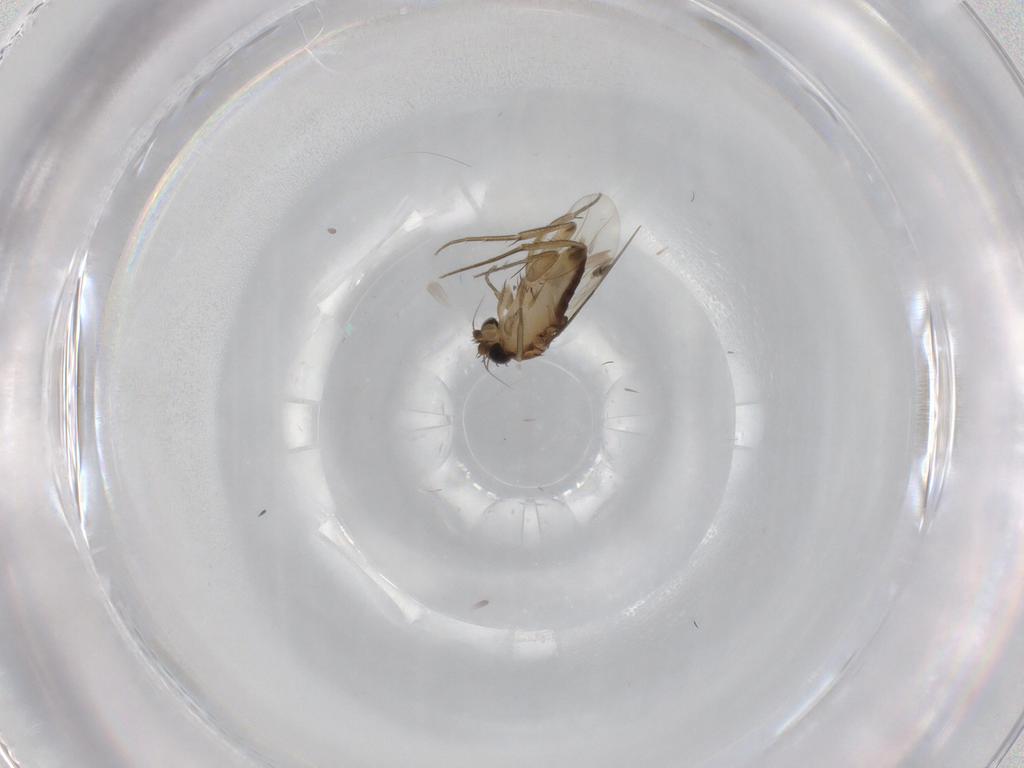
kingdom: Animalia
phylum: Arthropoda
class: Insecta
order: Diptera
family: Phoridae
